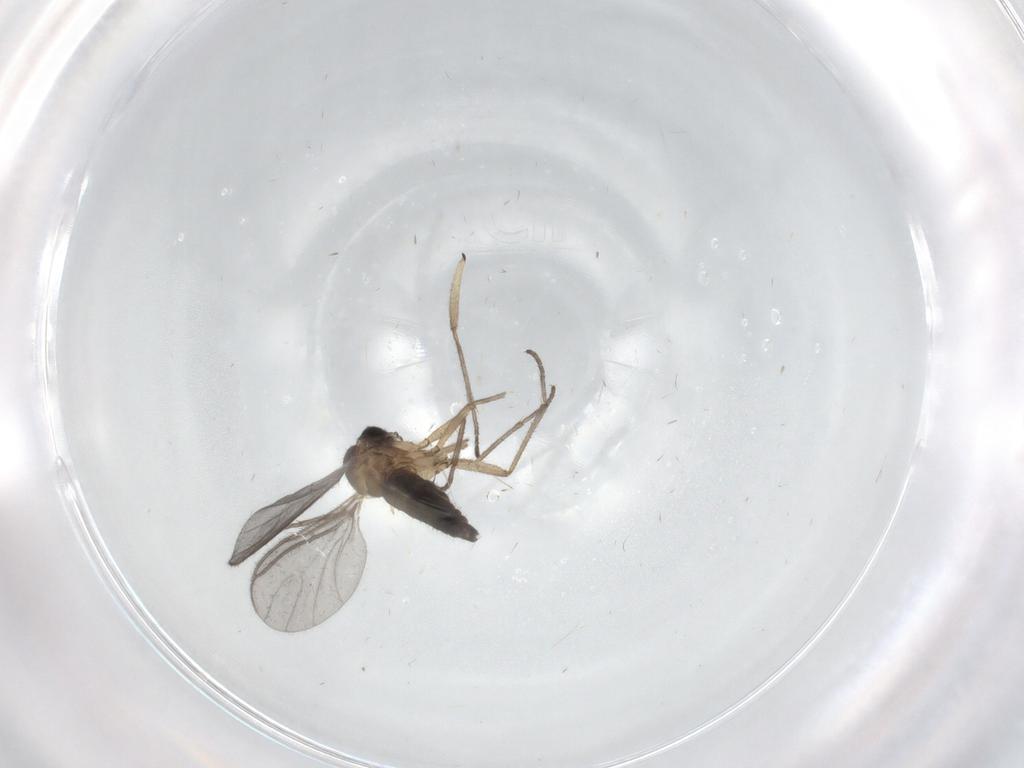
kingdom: Animalia
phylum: Arthropoda
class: Insecta
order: Diptera
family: Sciaridae
